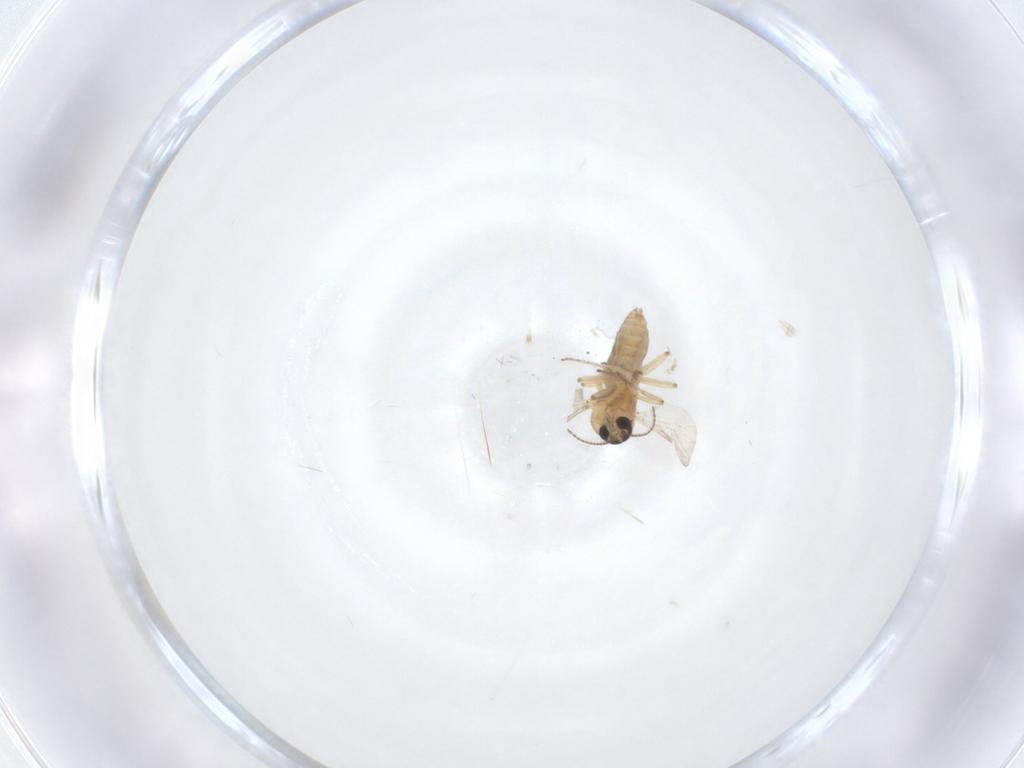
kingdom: Animalia
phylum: Arthropoda
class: Insecta
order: Diptera
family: Ceratopogonidae
